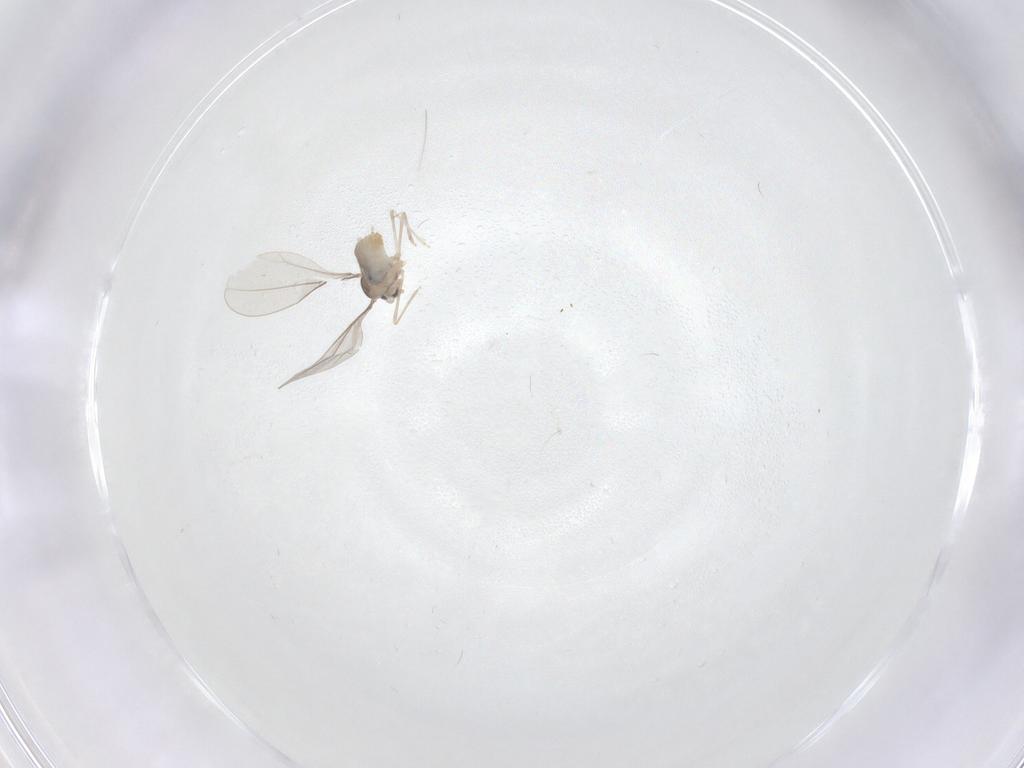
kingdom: Animalia
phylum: Arthropoda
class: Insecta
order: Diptera
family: Cecidomyiidae
